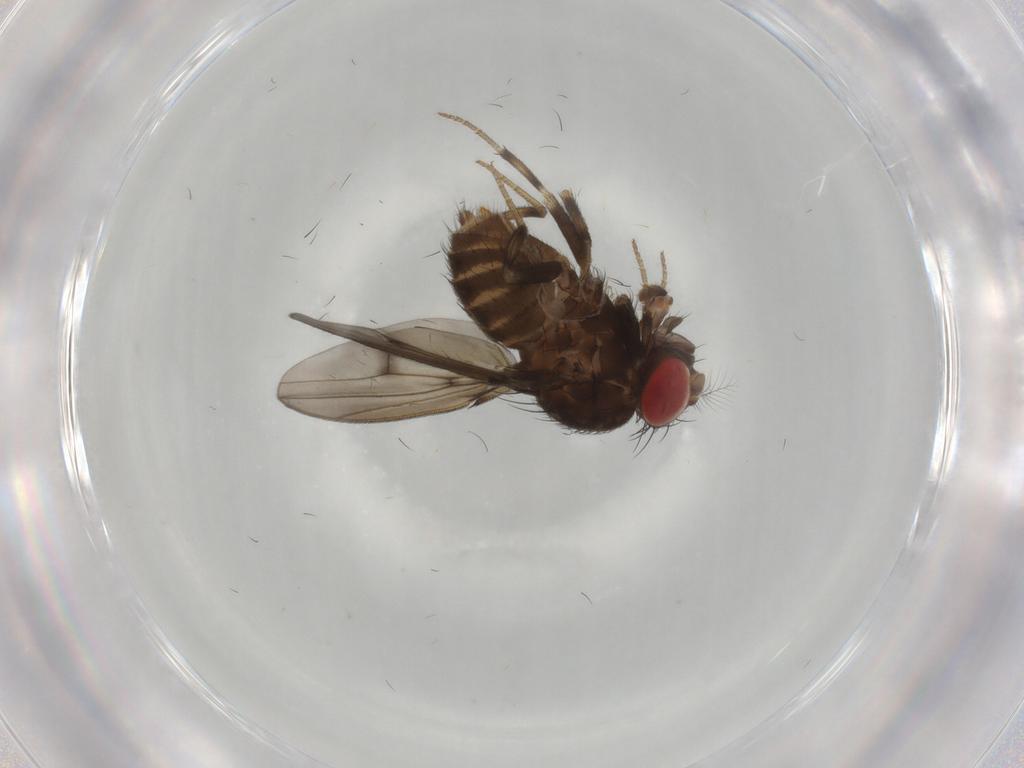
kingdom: Animalia
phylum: Arthropoda
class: Insecta
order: Diptera
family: Drosophilidae
